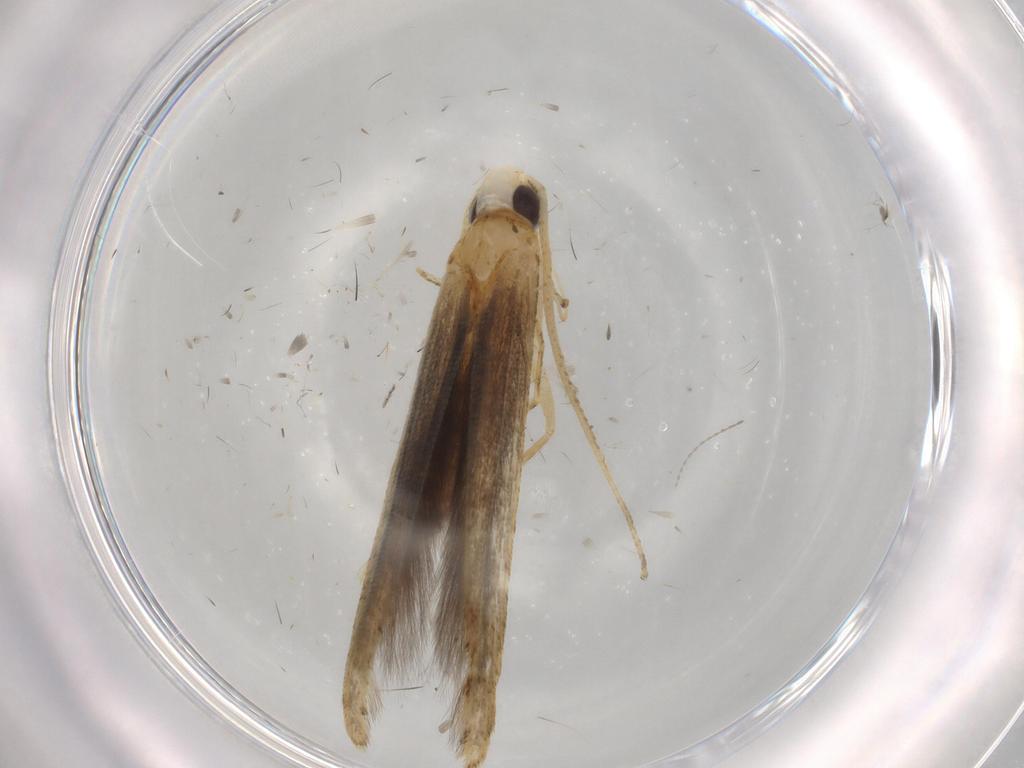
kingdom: Animalia
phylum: Arthropoda
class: Insecta
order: Lepidoptera
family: Batrachedridae
